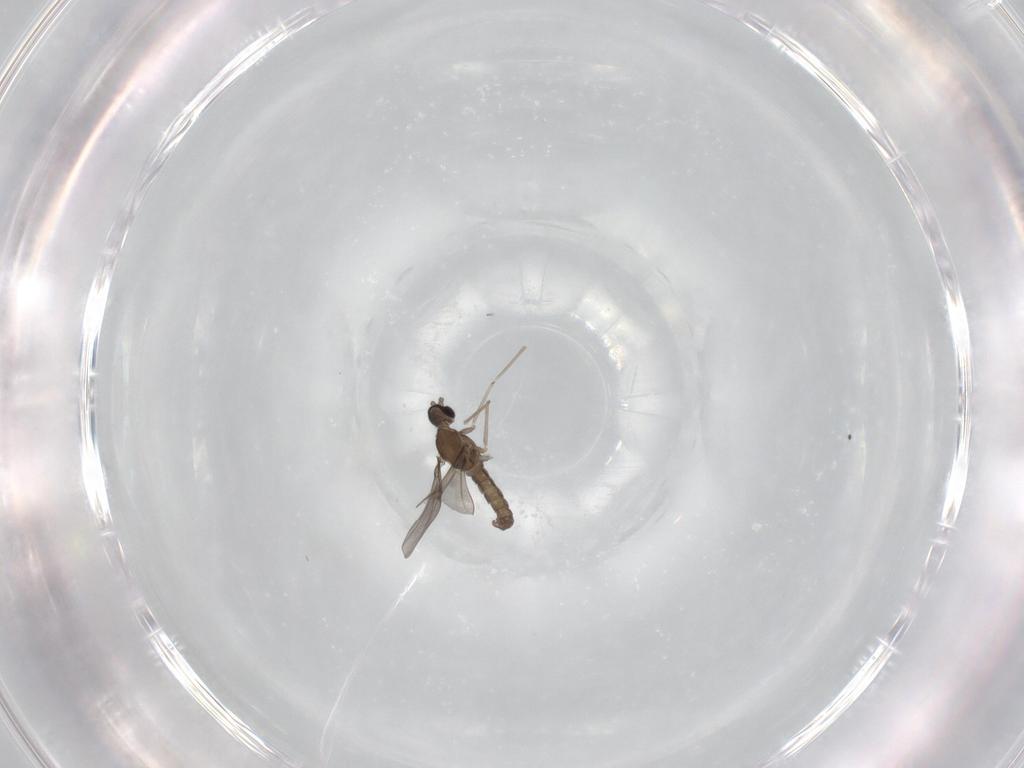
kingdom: Animalia
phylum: Arthropoda
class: Insecta
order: Diptera
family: Cecidomyiidae
